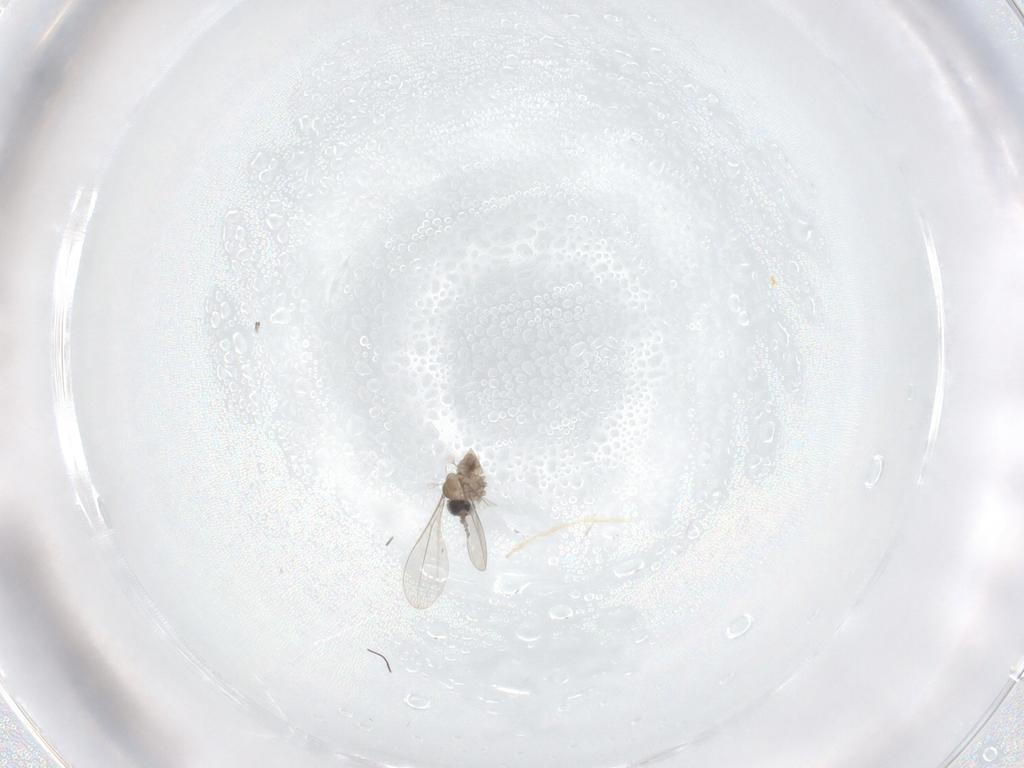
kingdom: Animalia
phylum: Arthropoda
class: Insecta
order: Diptera
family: Chironomidae
